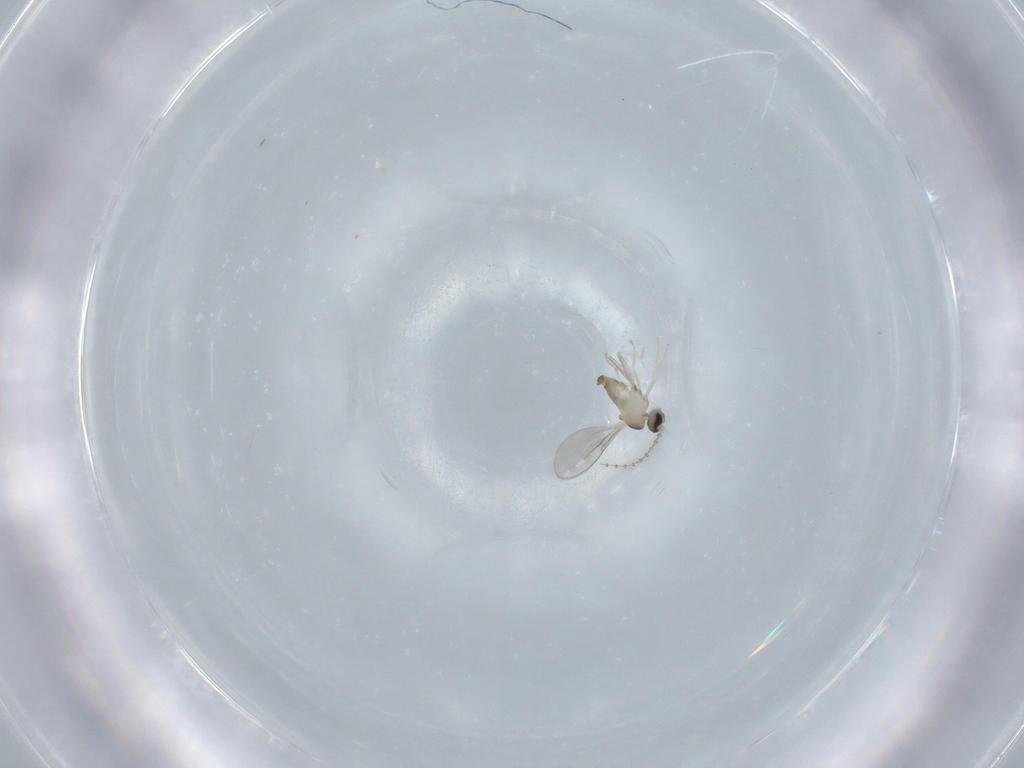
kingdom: Animalia
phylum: Arthropoda
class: Insecta
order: Diptera
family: Cecidomyiidae
